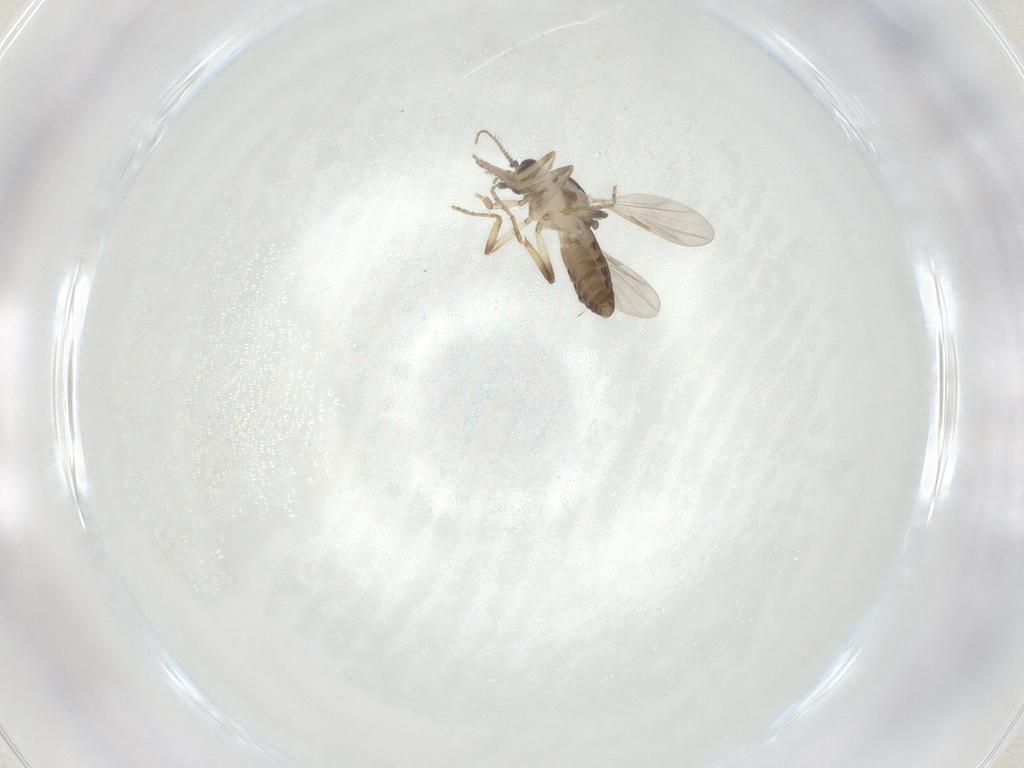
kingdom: Animalia
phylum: Arthropoda
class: Insecta
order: Diptera
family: Ceratopogonidae
